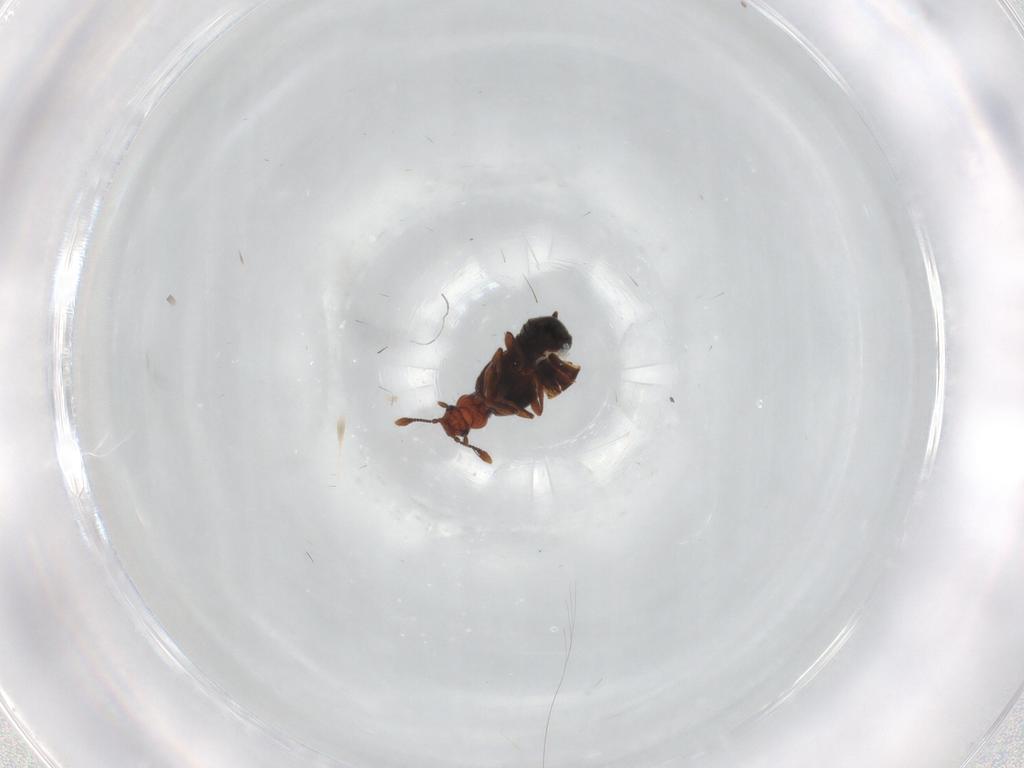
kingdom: Animalia
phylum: Arthropoda
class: Insecta
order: Coleoptera
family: Staphylinidae
